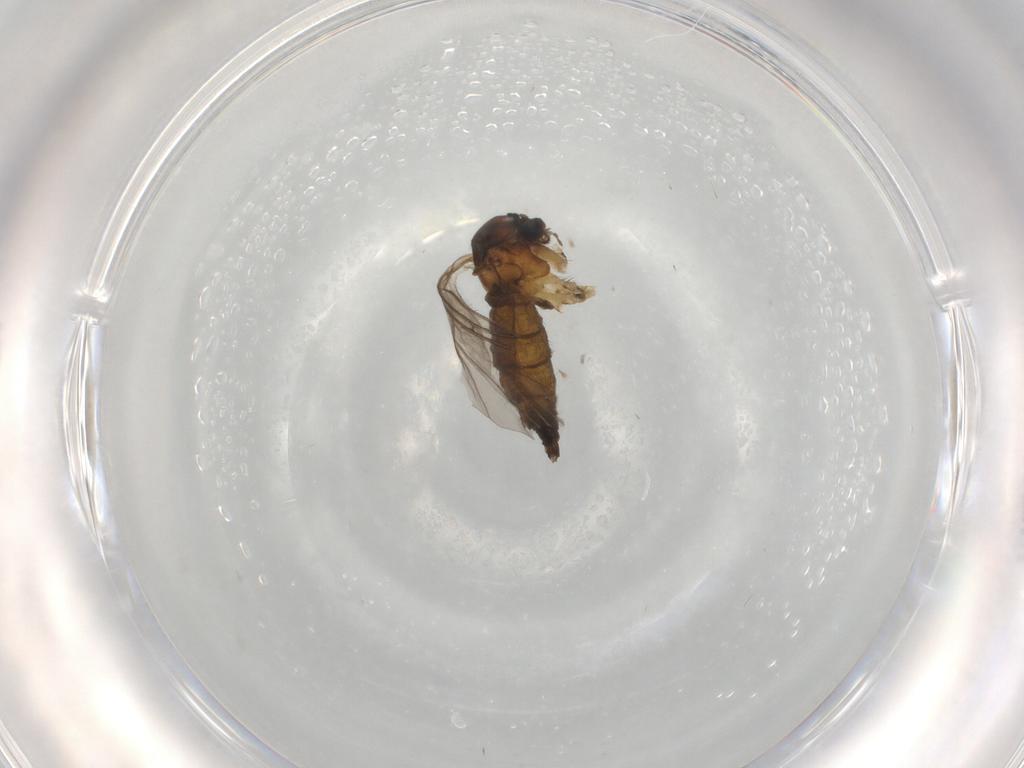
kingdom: Animalia
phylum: Arthropoda
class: Insecta
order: Diptera
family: Sciaridae
